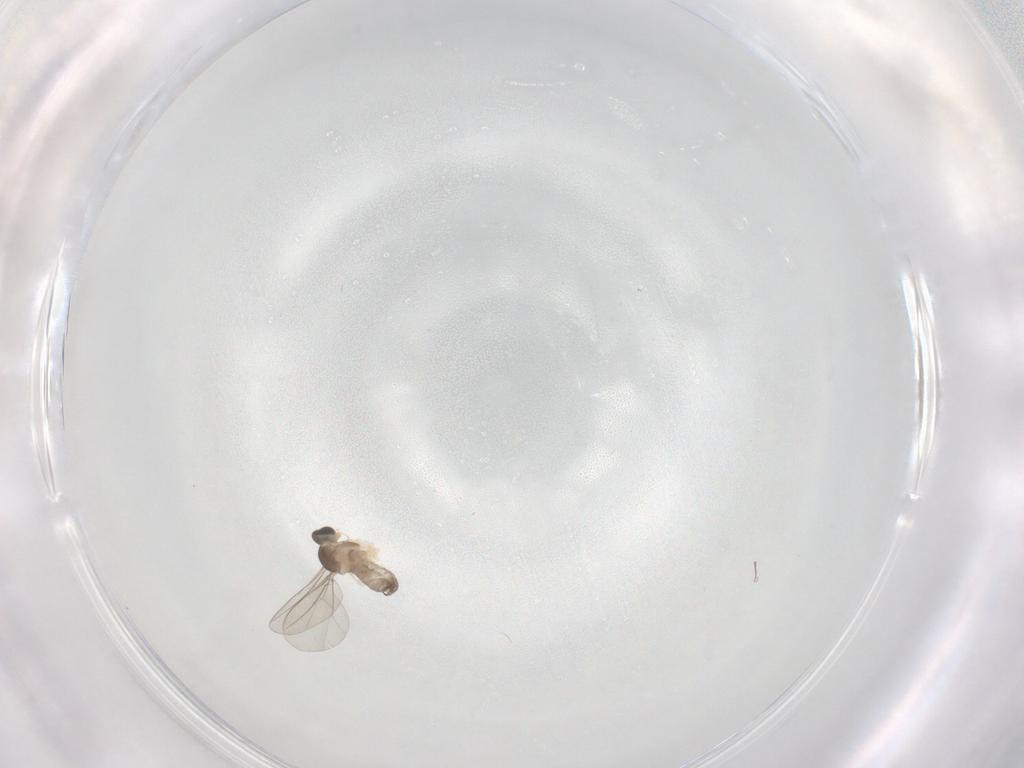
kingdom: Animalia
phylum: Arthropoda
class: Insecta
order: Diptera
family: Cecidomyiidae
